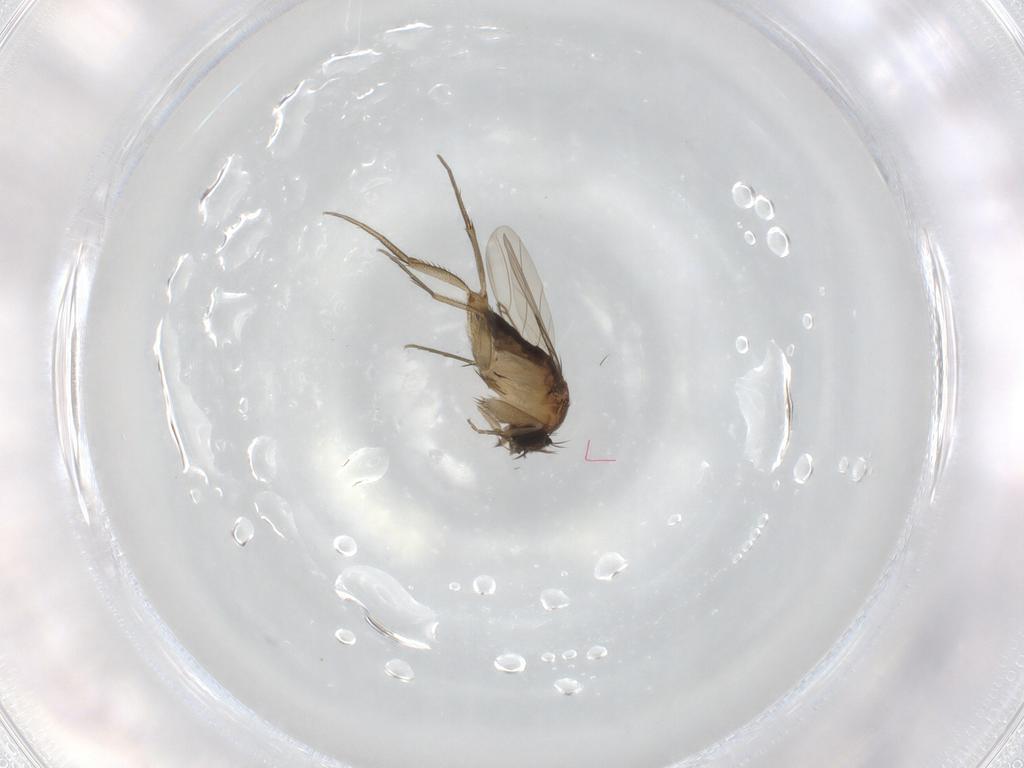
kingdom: Animalia
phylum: Arthropoda
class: Insecta
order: Diptera
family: Phoridae
